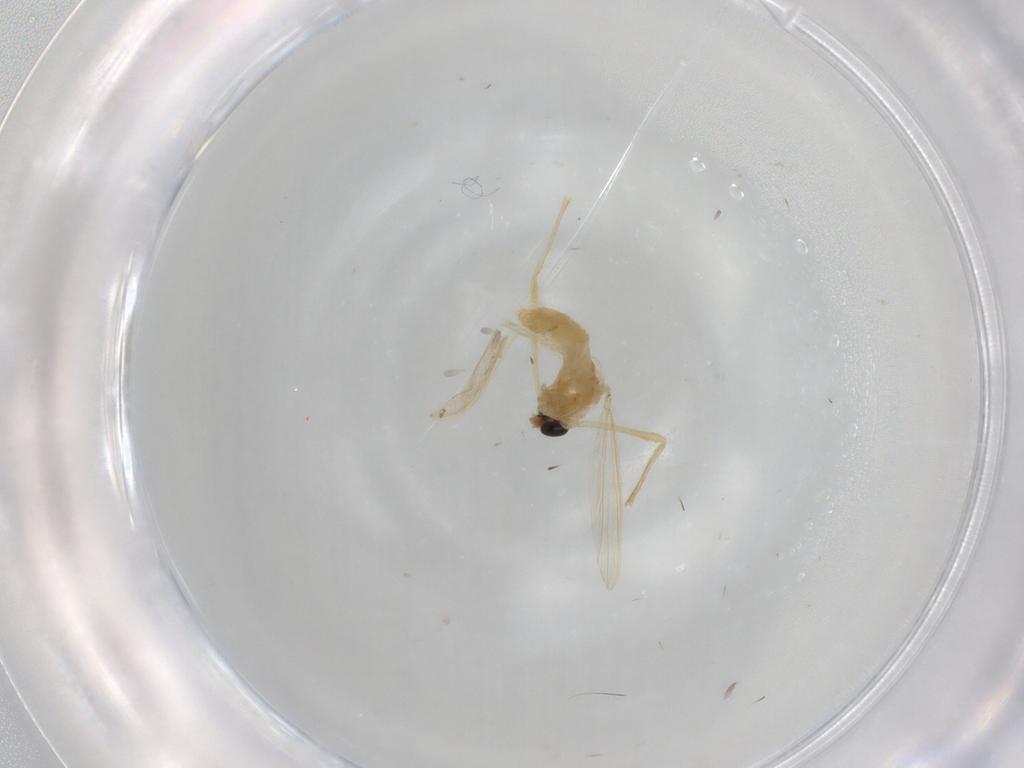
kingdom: Animalia
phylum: Arthropoda
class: Insecta
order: Diptera
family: Chironomidae
